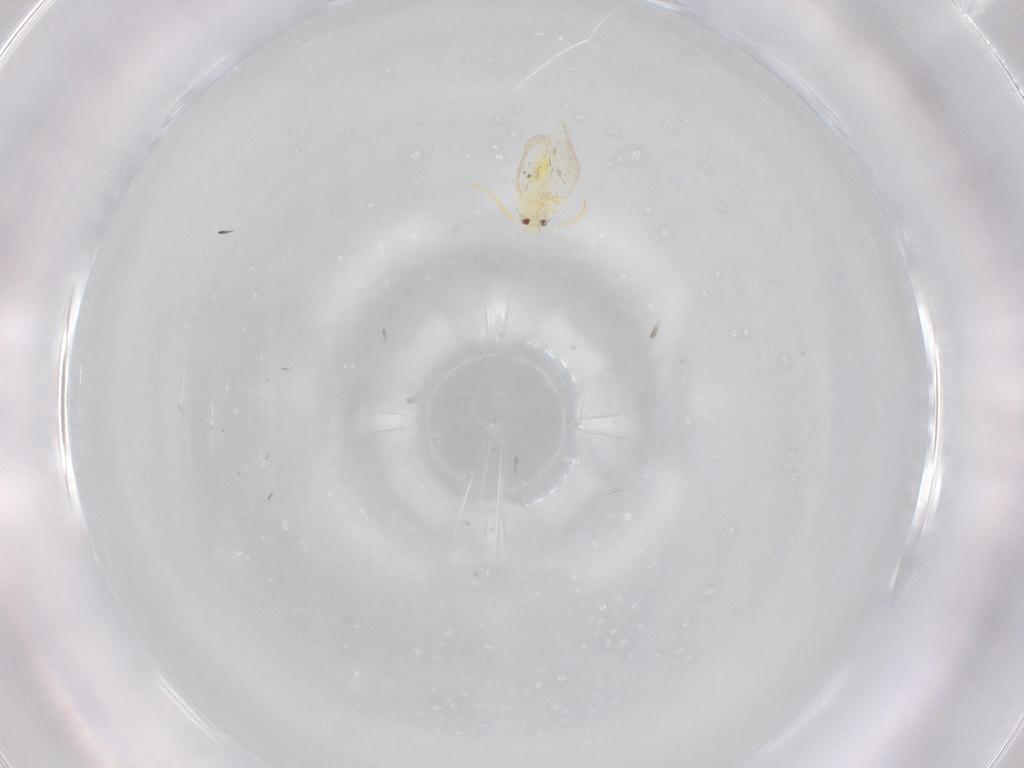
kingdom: Animalia
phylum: Arthropoda
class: Insecta
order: Hemiptera
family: Aleyrodidae
